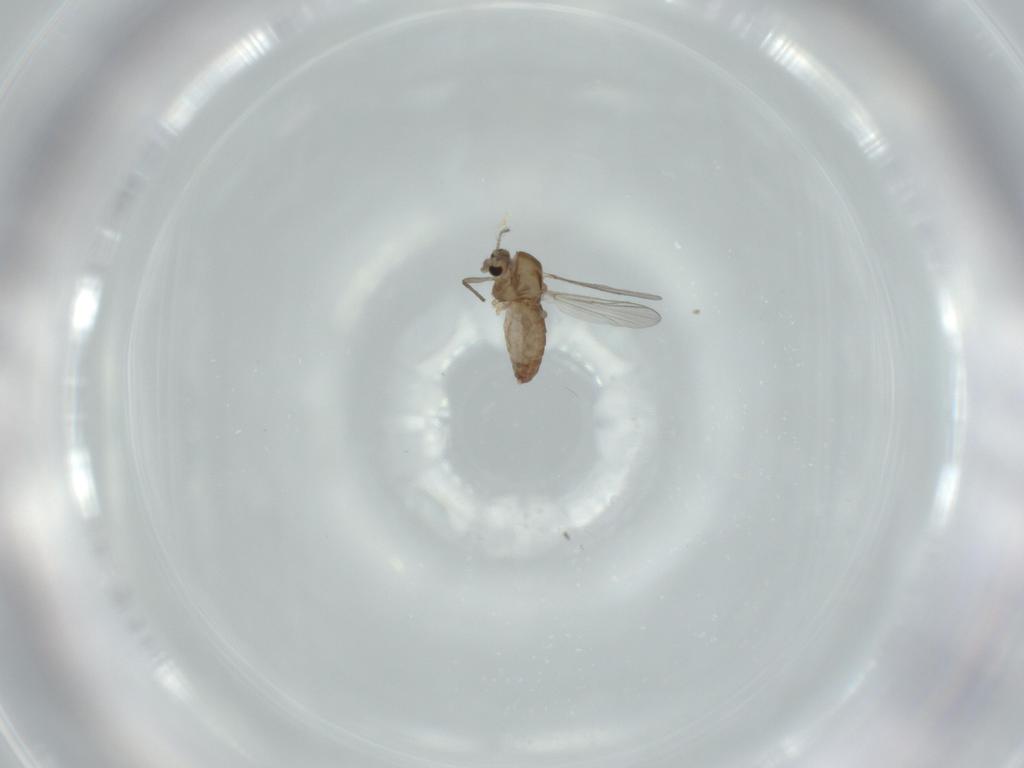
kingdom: Animalia
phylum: Arthropoda
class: Insecta
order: Diptera
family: Chironomidae
